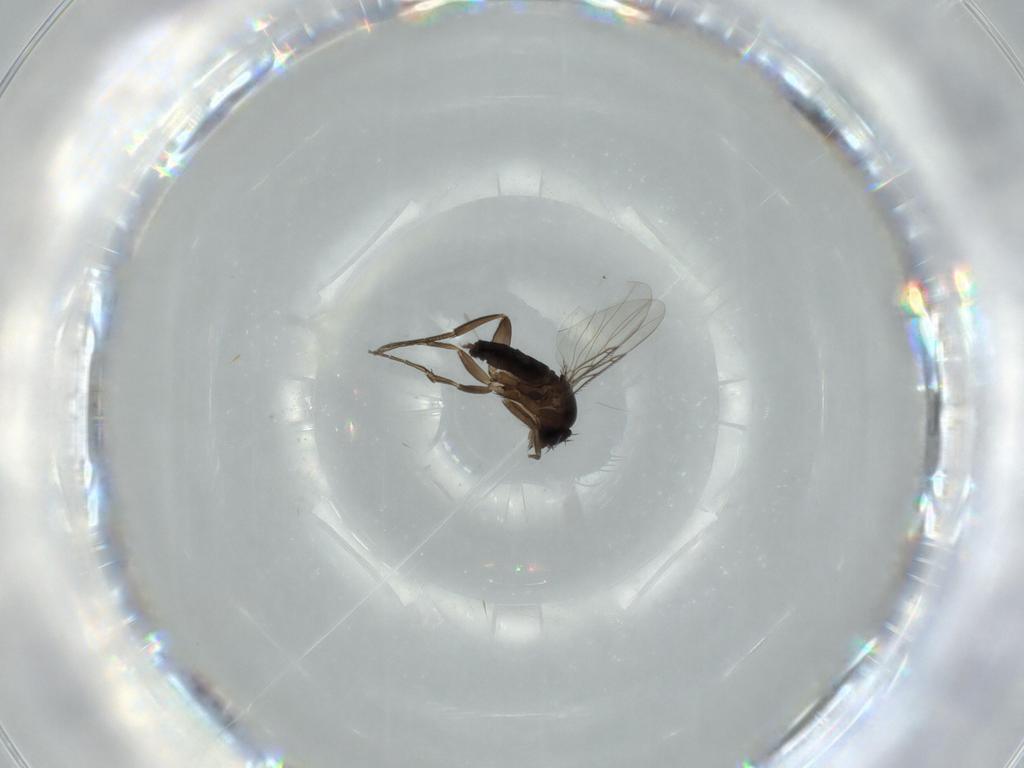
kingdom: Animalia
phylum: Arthropoda
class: Insecta
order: Diptera
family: Phoridae
